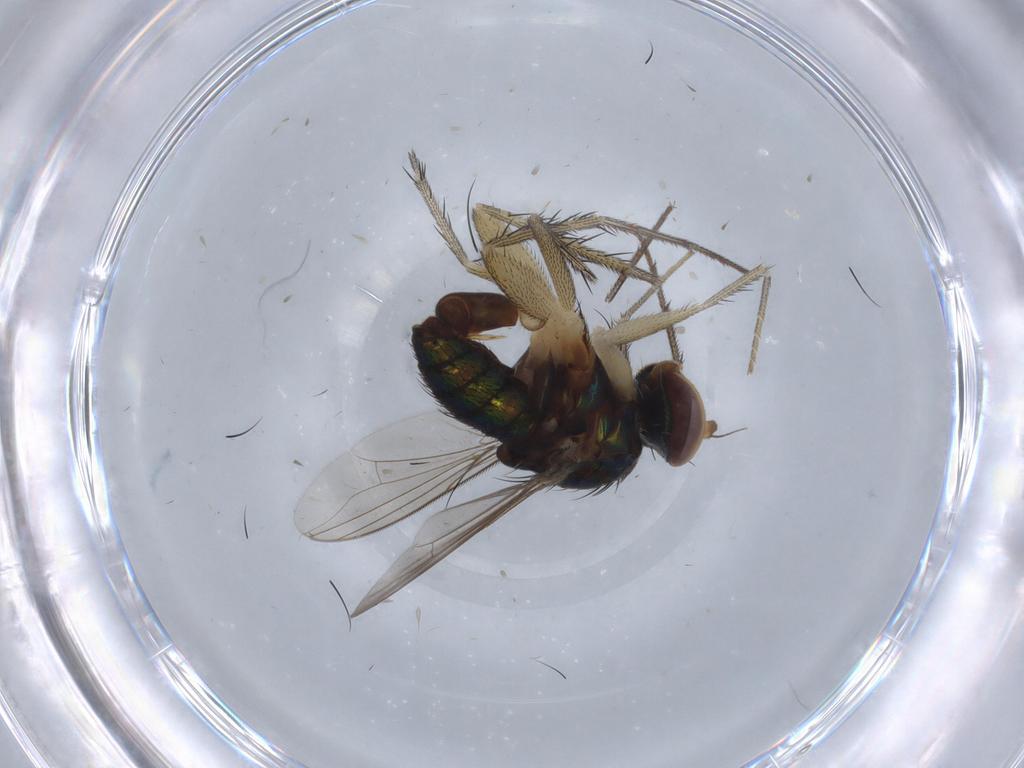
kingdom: Animalia
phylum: Arthropoda
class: Insecta
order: Diptera
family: Dolichopodidae
